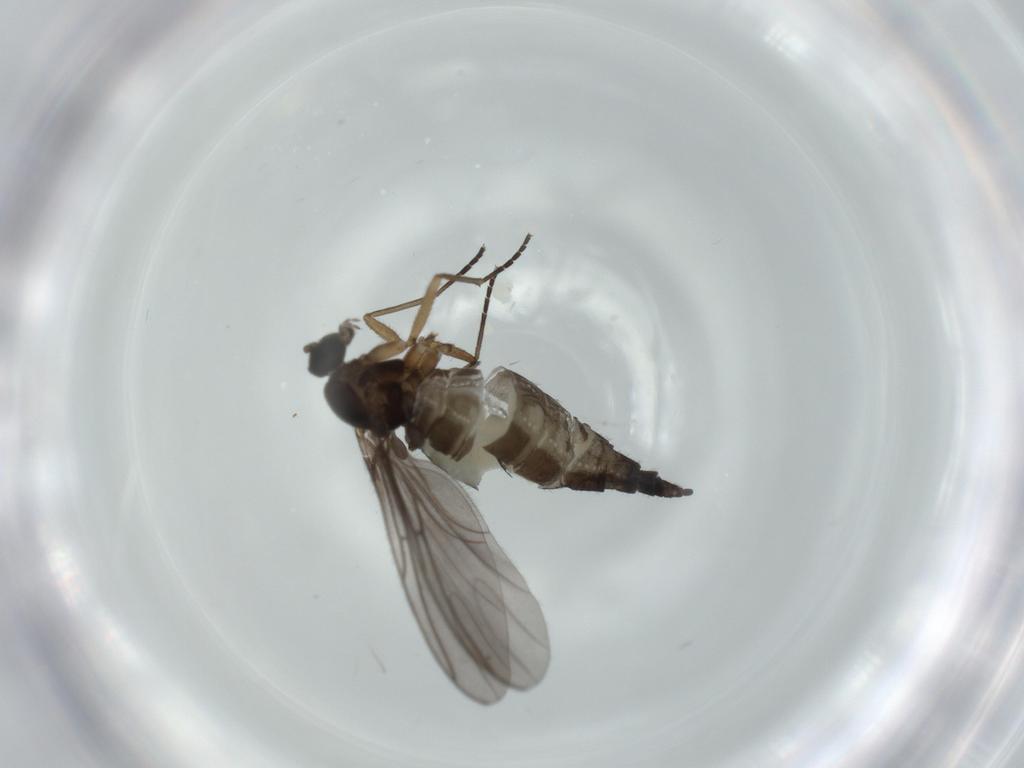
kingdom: Animalia
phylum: Arthropoda
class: Insecta
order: Diptera
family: Sciaridae
